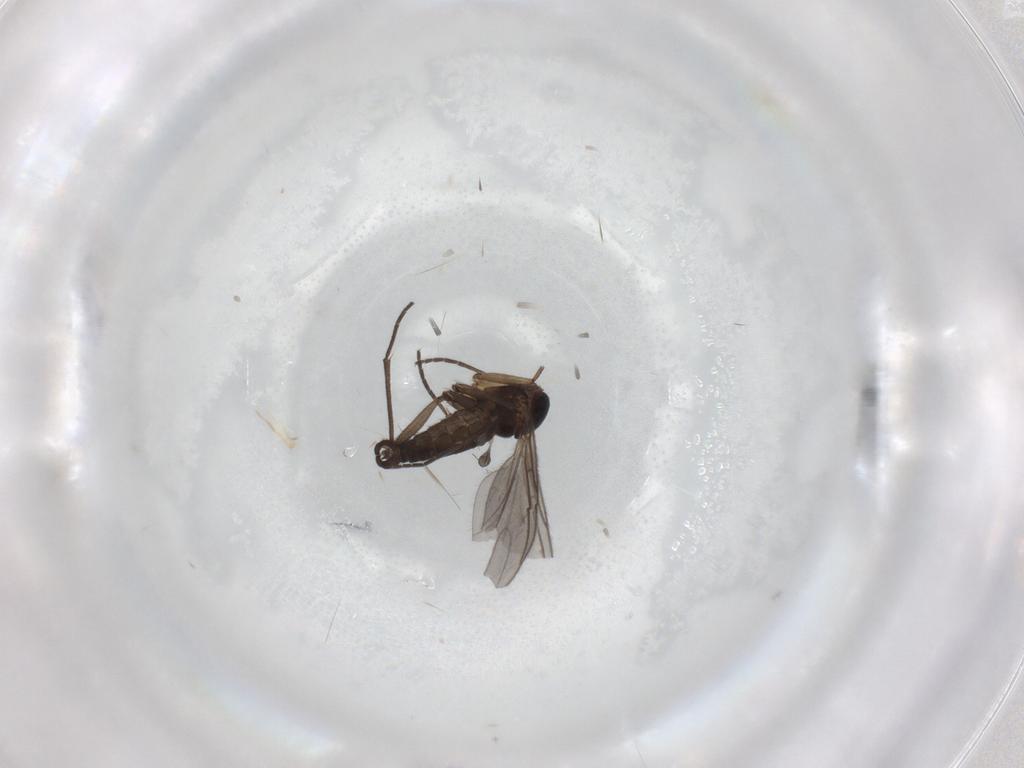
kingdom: Animalia
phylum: Arthropoda
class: Insecta
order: Diptera
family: Sciaridae
